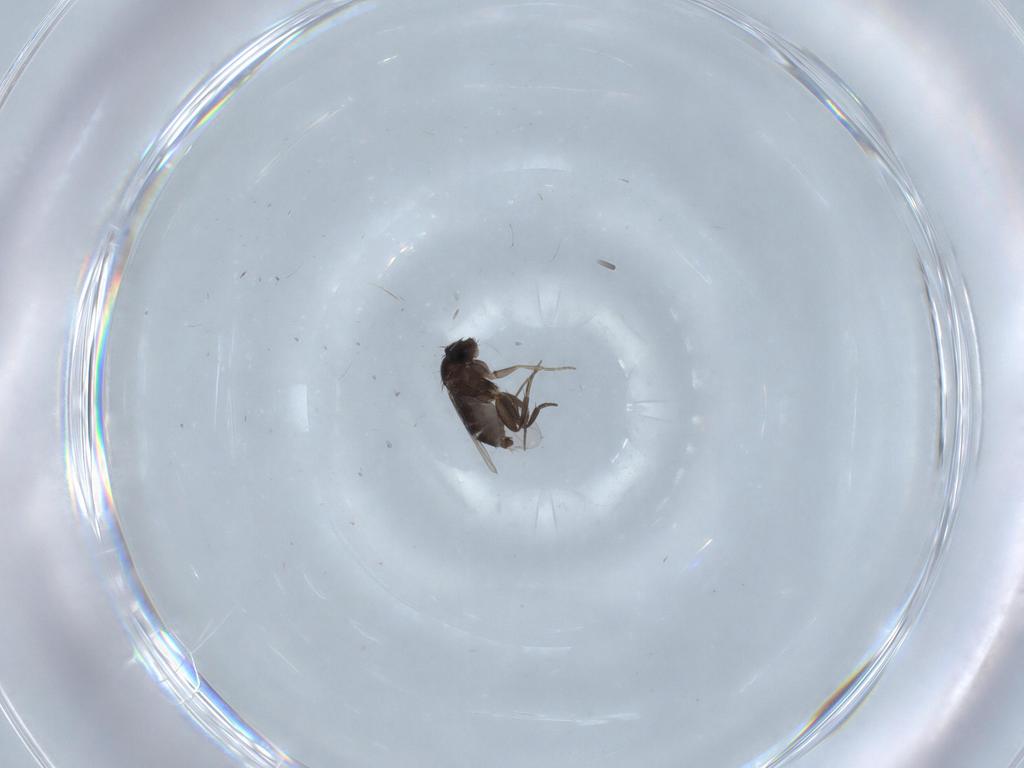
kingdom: Animalia
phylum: Arthropoda
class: Insecta
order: Diptera
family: Phoridae
